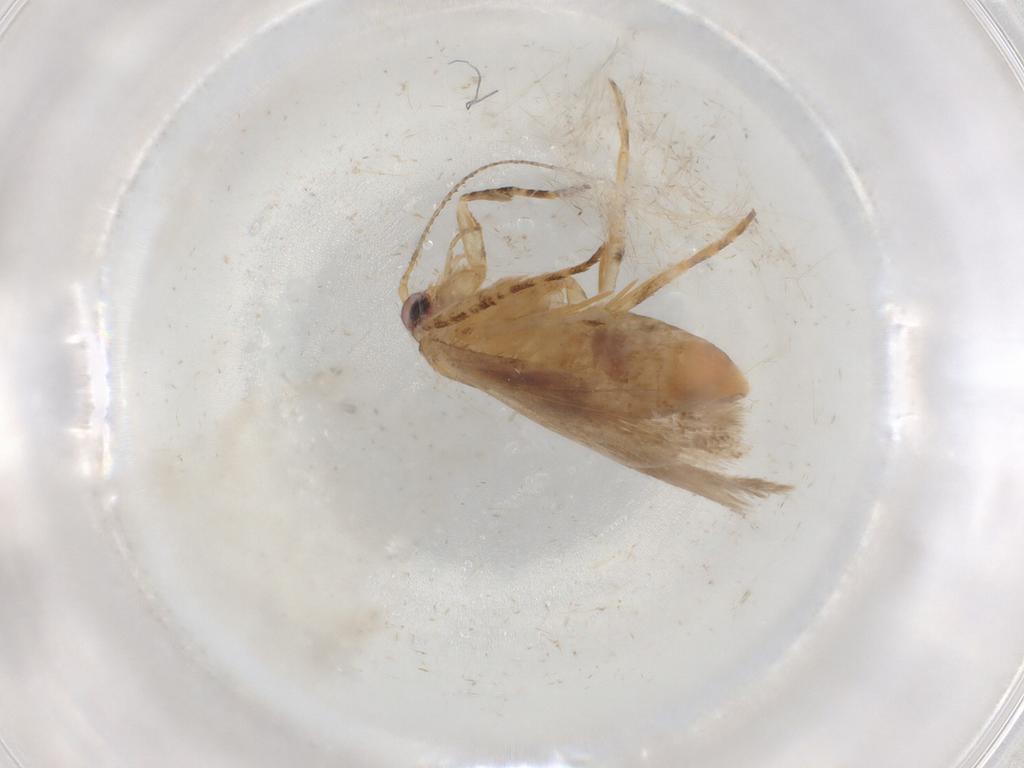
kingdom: Animalia
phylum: Arthropoda
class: Insecta
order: Lepidoptera
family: Gelechiidae
